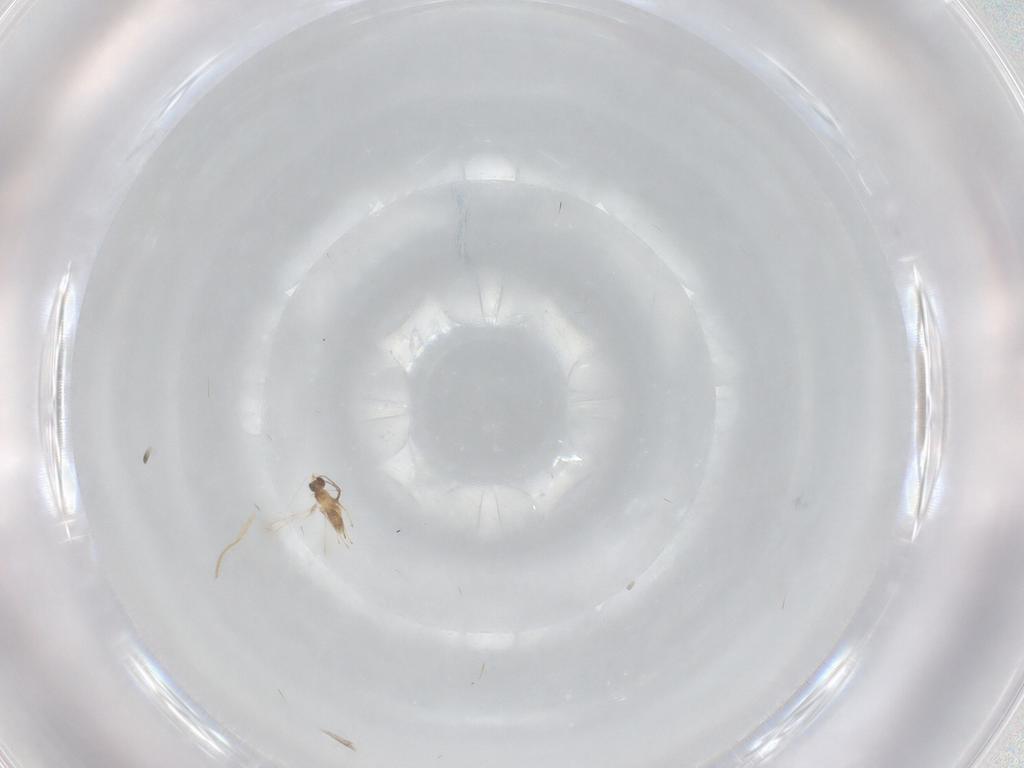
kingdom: Animalia
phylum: Arthropoda
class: Insecta
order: Hymenoptera
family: Mymaridae
